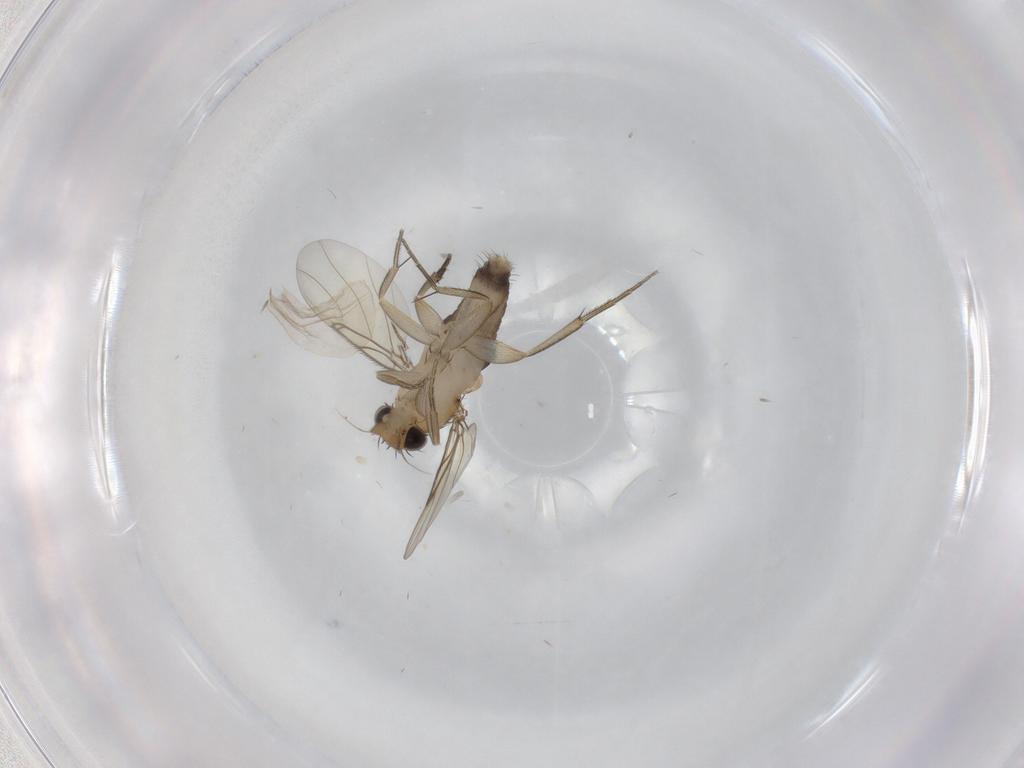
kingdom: Animalia
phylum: Arthropoda
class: Insecta
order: Diptera
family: Phoridae
